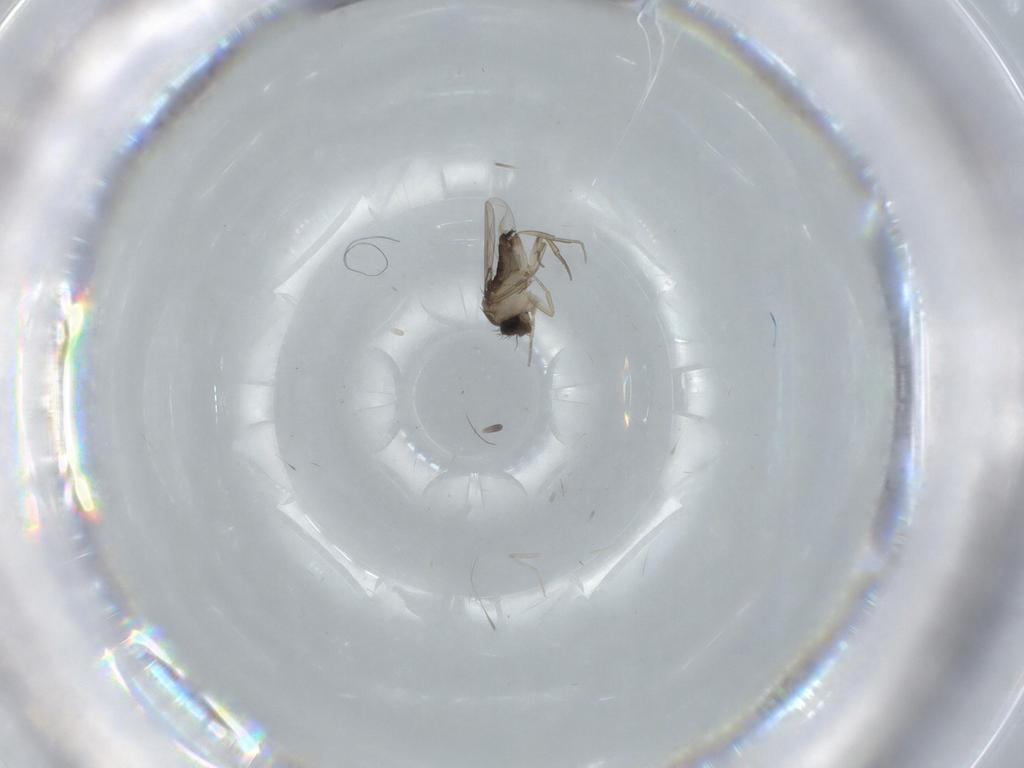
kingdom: Animalia
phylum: Arthropoda
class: Insecta
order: Diptera
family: Phoridae
